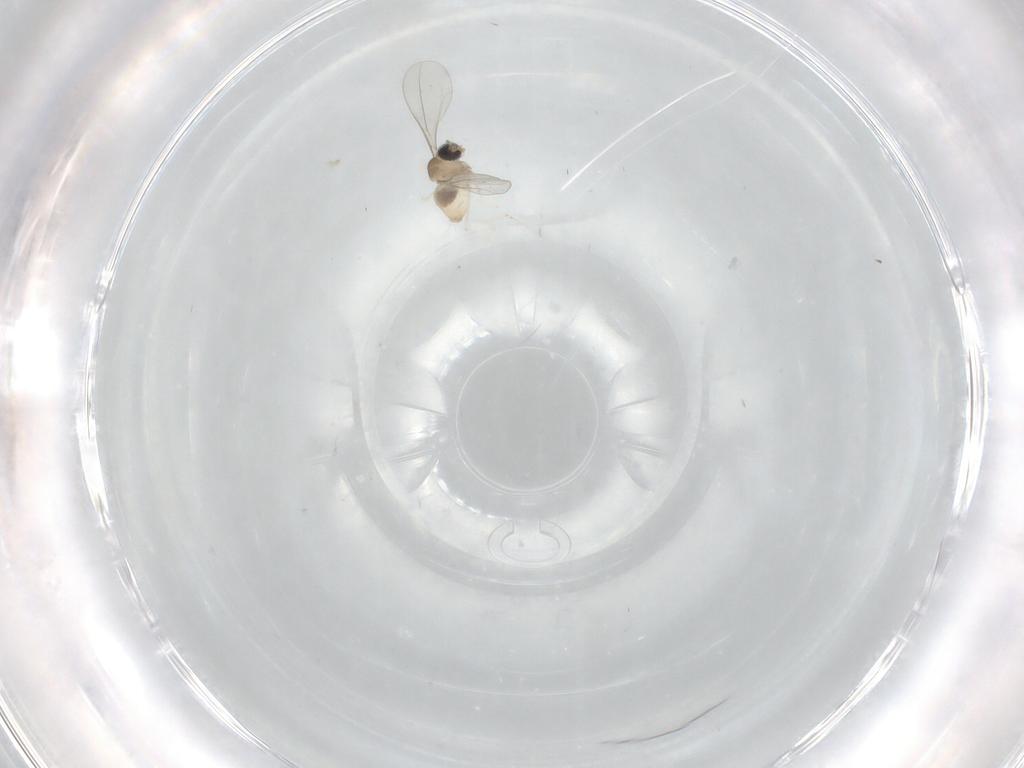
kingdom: Animalia
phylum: Arthropoda
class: Insecta
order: Diptera
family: Cecidomyiidae
